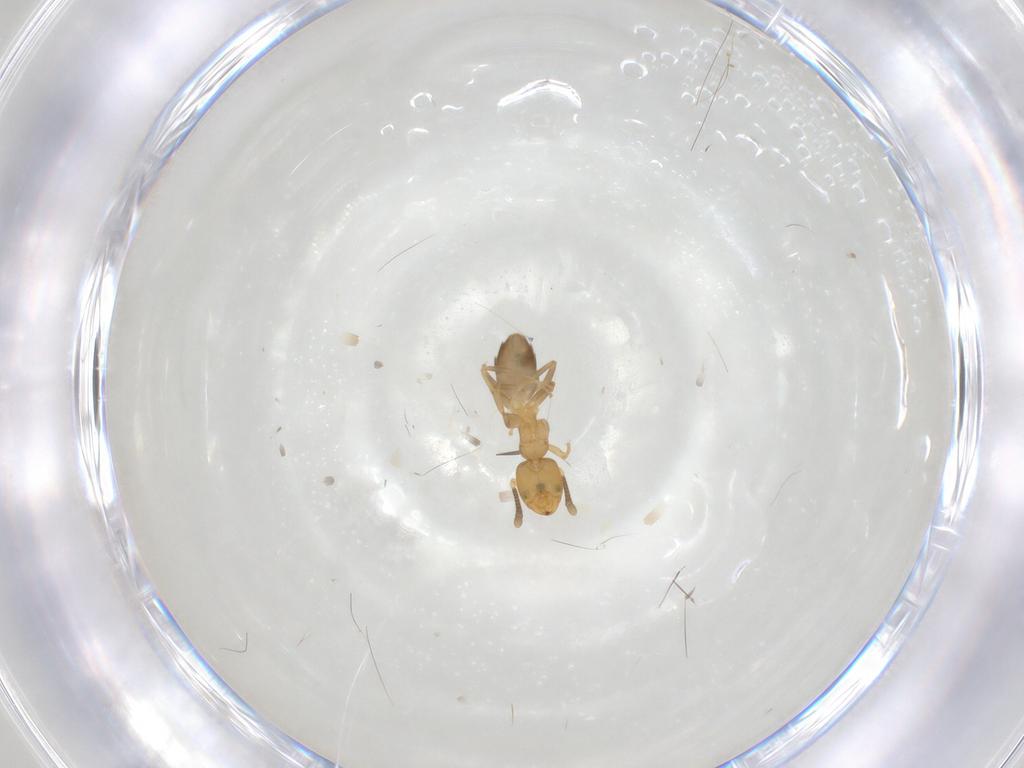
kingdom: Animalia
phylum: Arthropoda
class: Insecta
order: Hymenoptera
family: Formicidae
